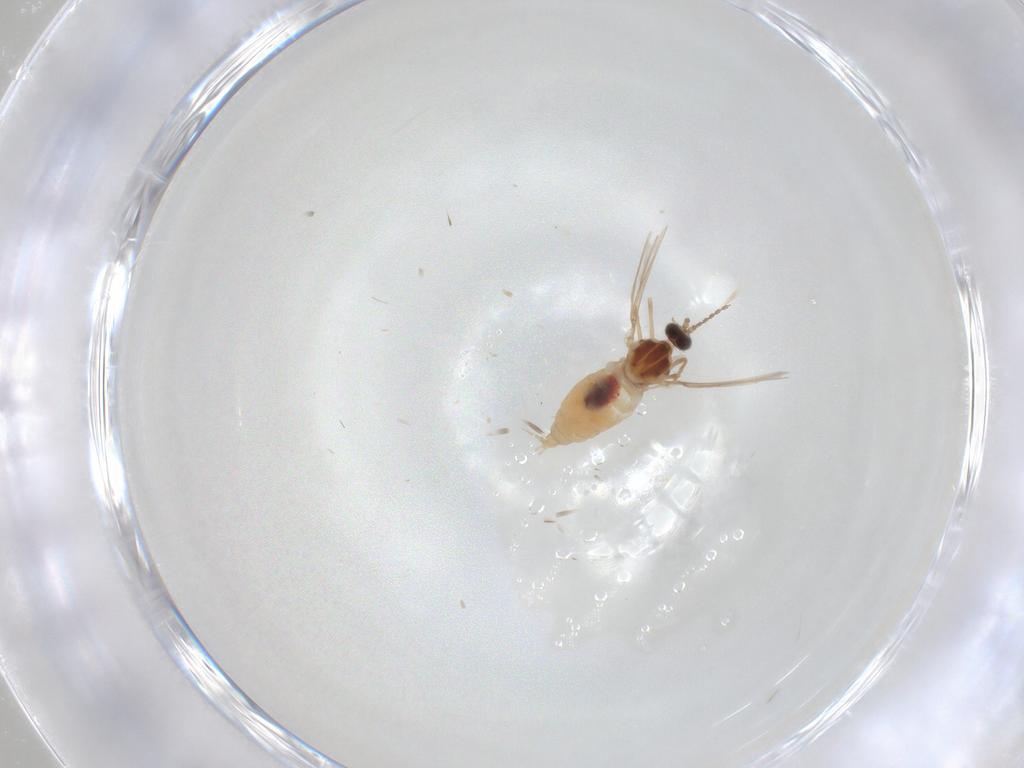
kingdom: Animalia
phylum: Arthropoda
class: Insecta
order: Diptera
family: Cecidomyiidae
